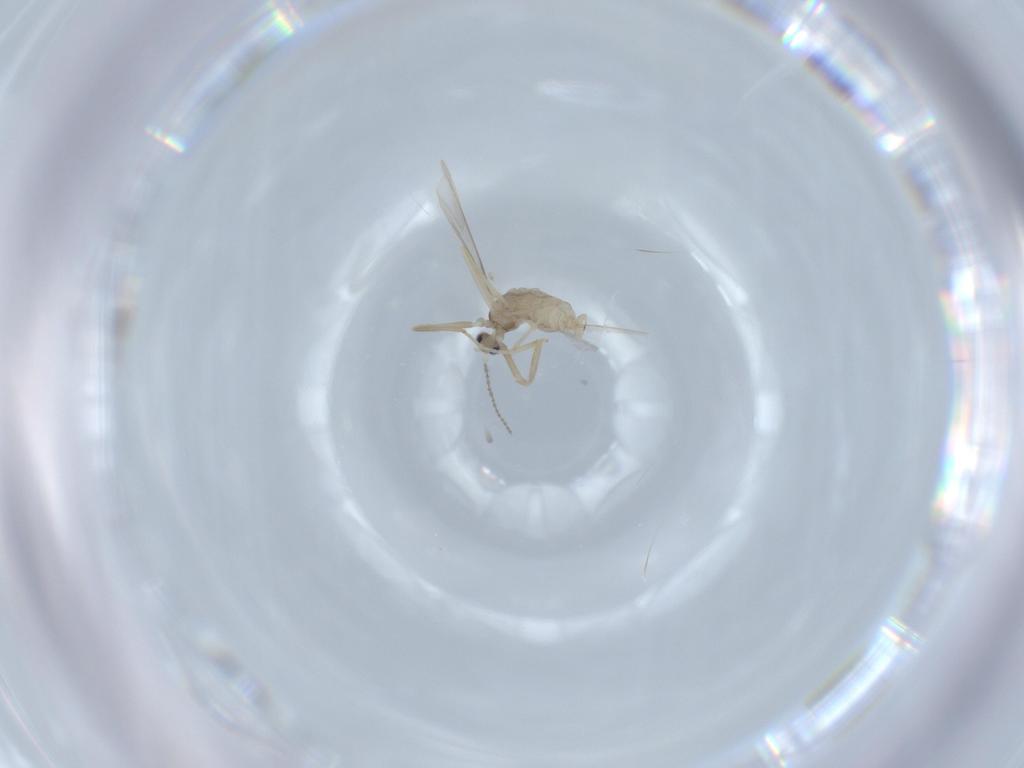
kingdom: Animalia
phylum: Arthropoda
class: Insecta
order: Diptera
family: Cecidomyiidae
